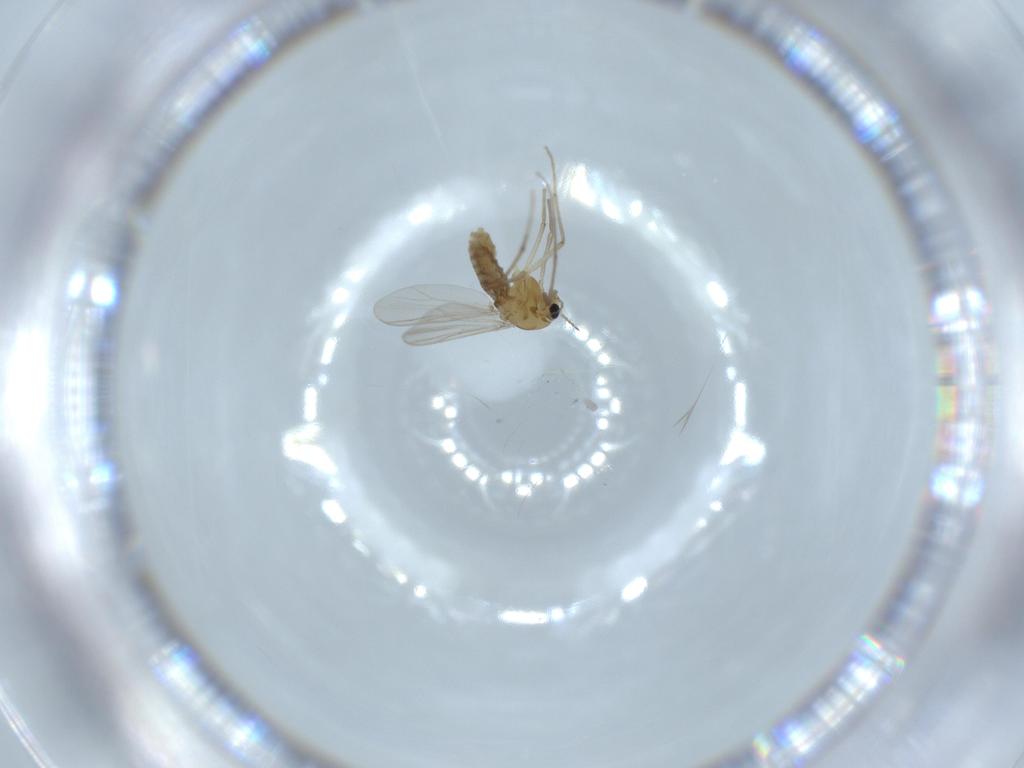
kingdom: Animalia
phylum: Arthropoda
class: Insecta
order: Diptera
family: Chironomidae
